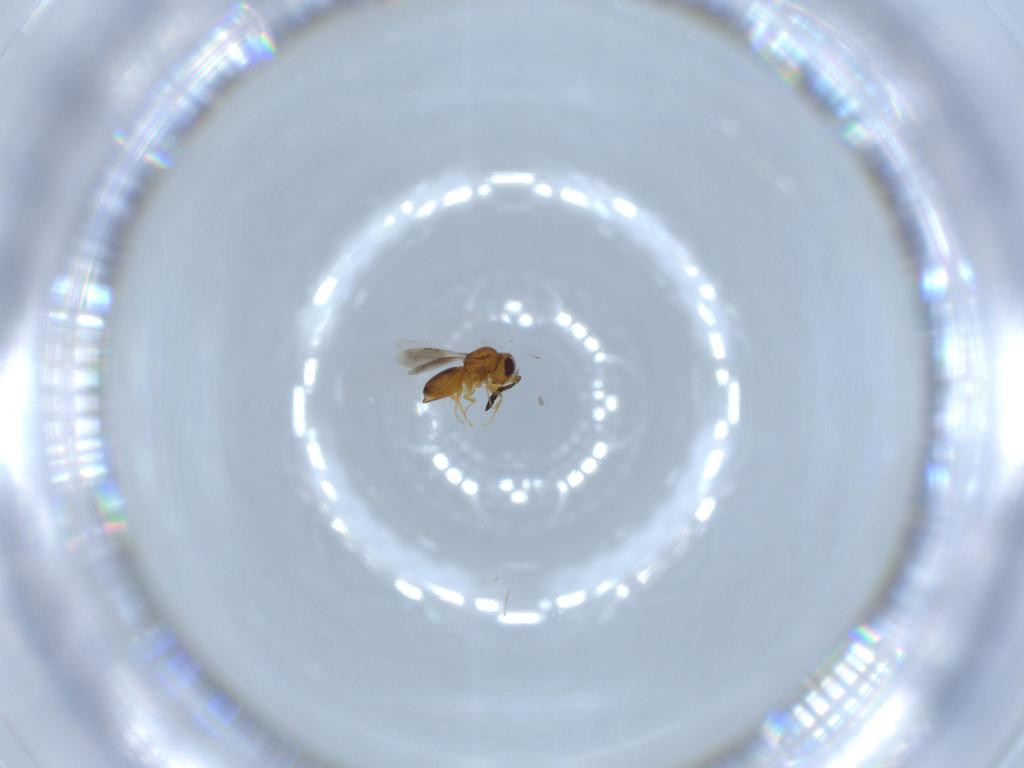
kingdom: Animalia
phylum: Arthropoda
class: Insecta
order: Hymenoptera
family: Ceraphronidae
